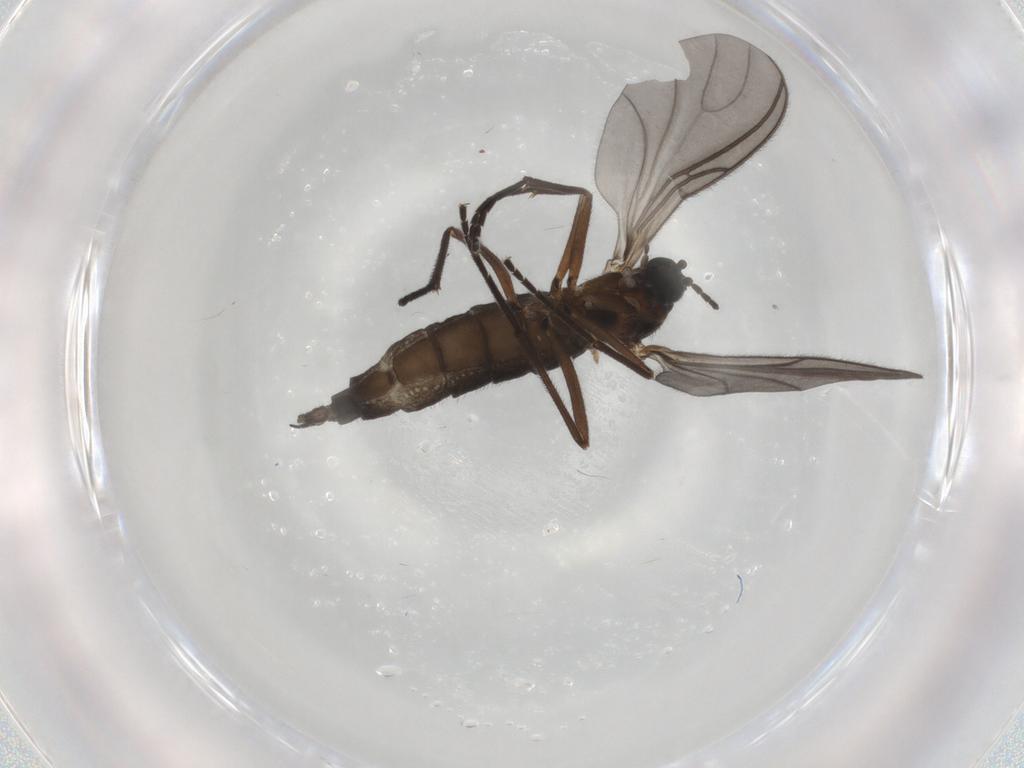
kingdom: Animalia
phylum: Arthropoda
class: Insecta
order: Diptera
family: Sciaridae
